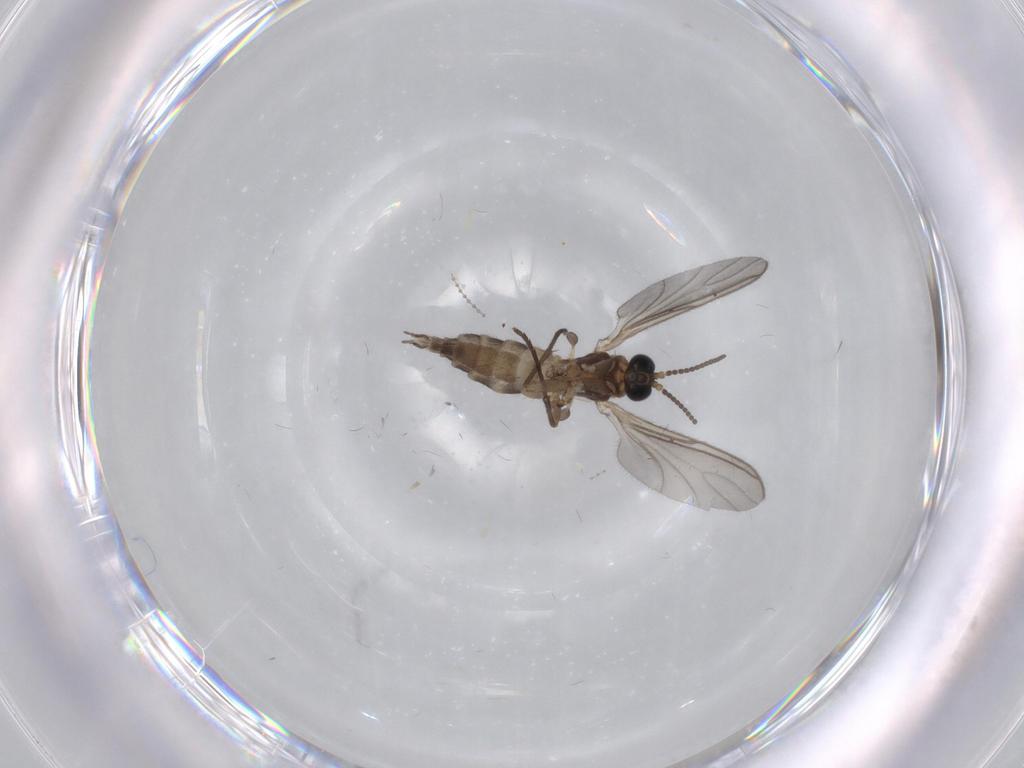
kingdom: Animalia
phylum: Arthropoda
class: Insecta
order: Diptera
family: Sciaridae
